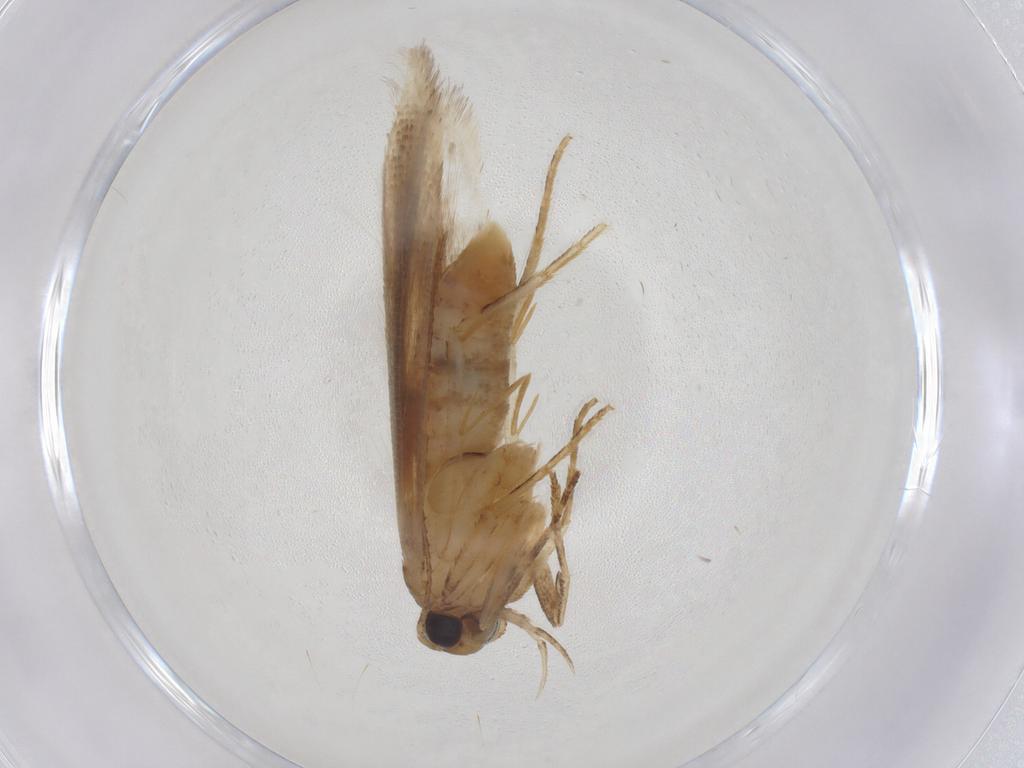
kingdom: Animalia
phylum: Arthropoda
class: Insecta
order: Lepidoptera
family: Gelechiidae
